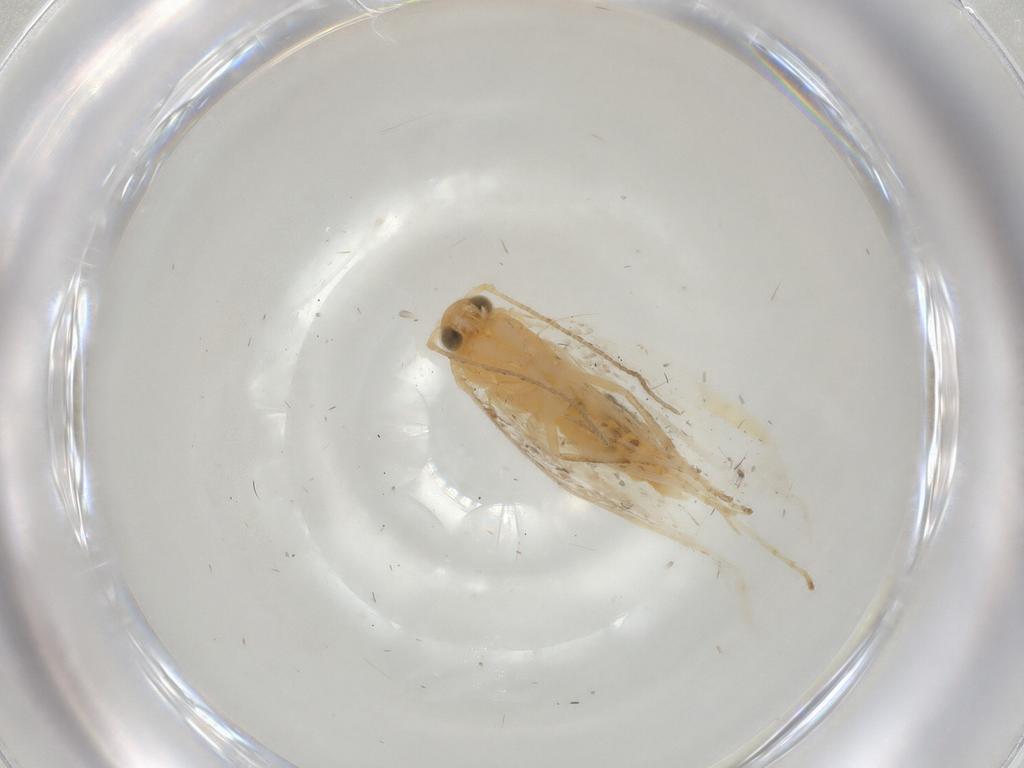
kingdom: Animalia
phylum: Arthropoda
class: Insecta
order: Lepidoptera
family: Argyresthiidae
